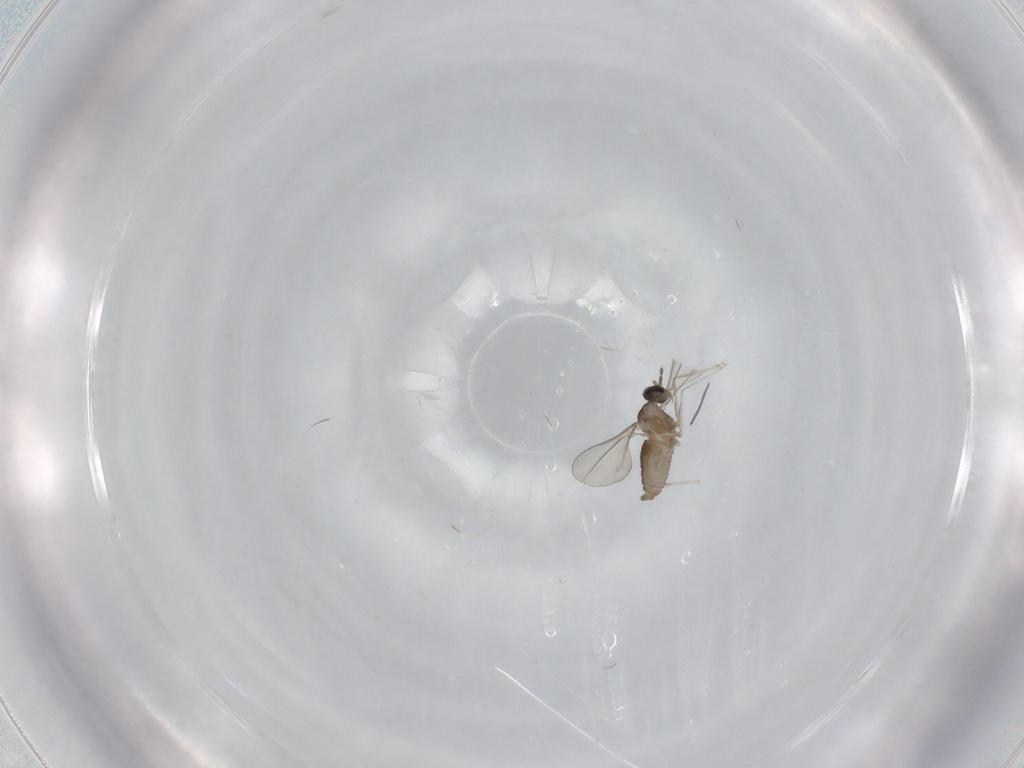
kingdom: Animalia
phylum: Arthropoda
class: Insecta
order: Diptera
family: Cecidomyiidae
